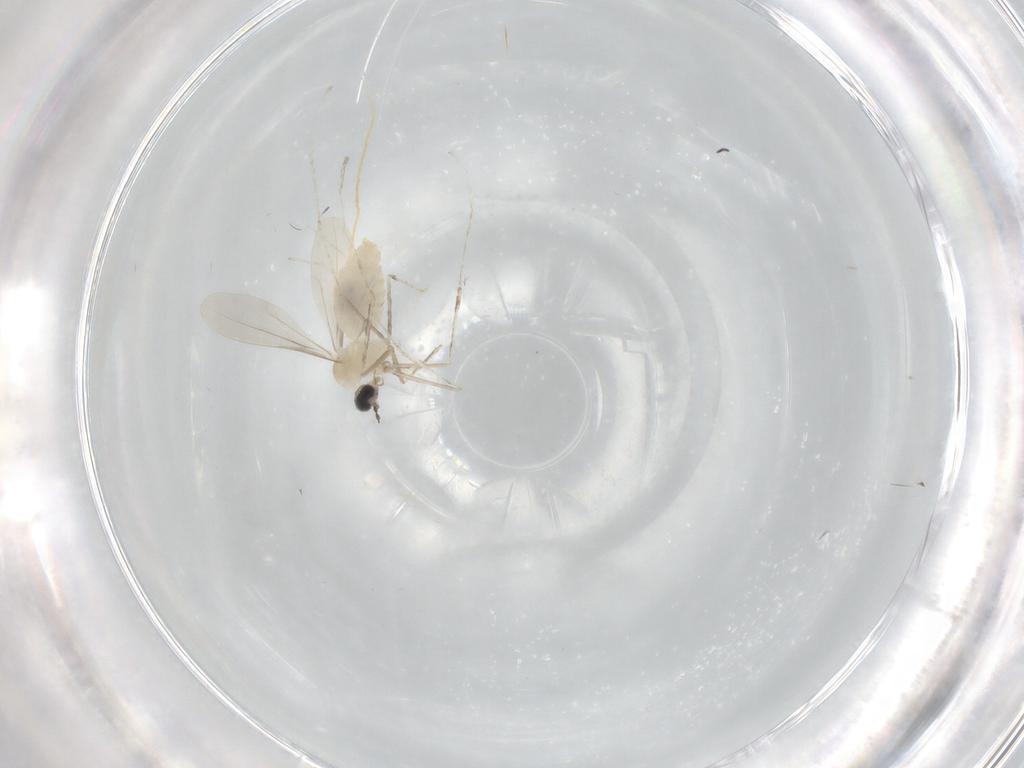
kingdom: Animalia
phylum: Arthropoda
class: Insecta
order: Diptera
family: Cecidomyiidae
